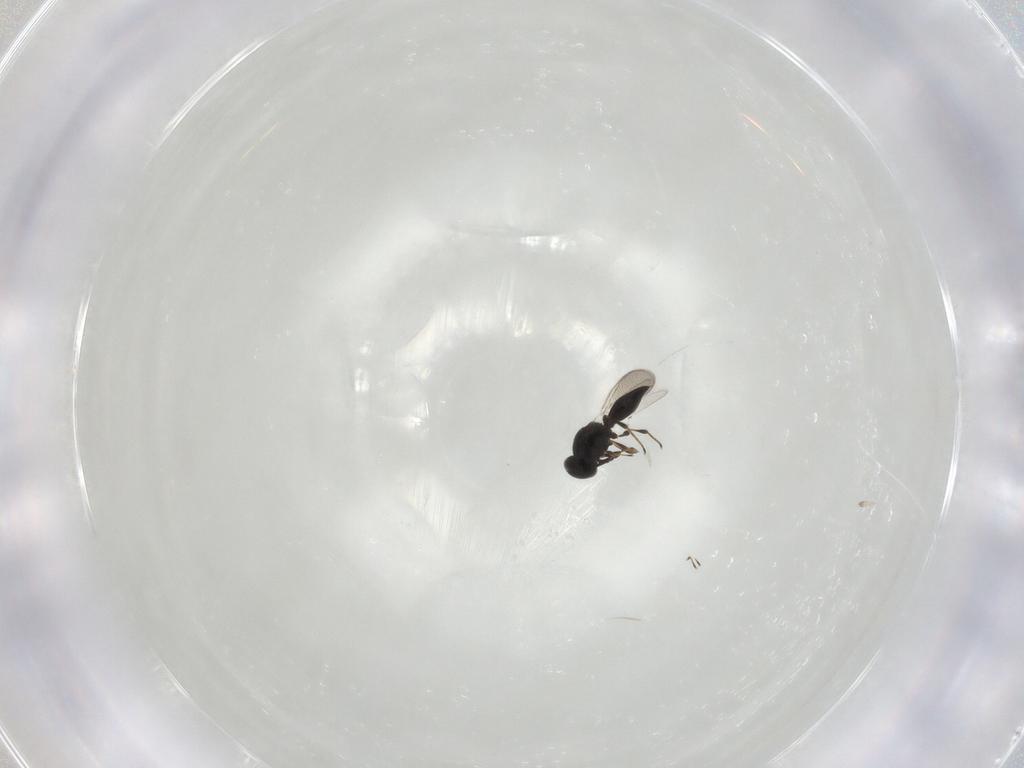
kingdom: Animalia
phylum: Arthropoda
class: Insecta
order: Hymenoptera
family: Platygastridae
